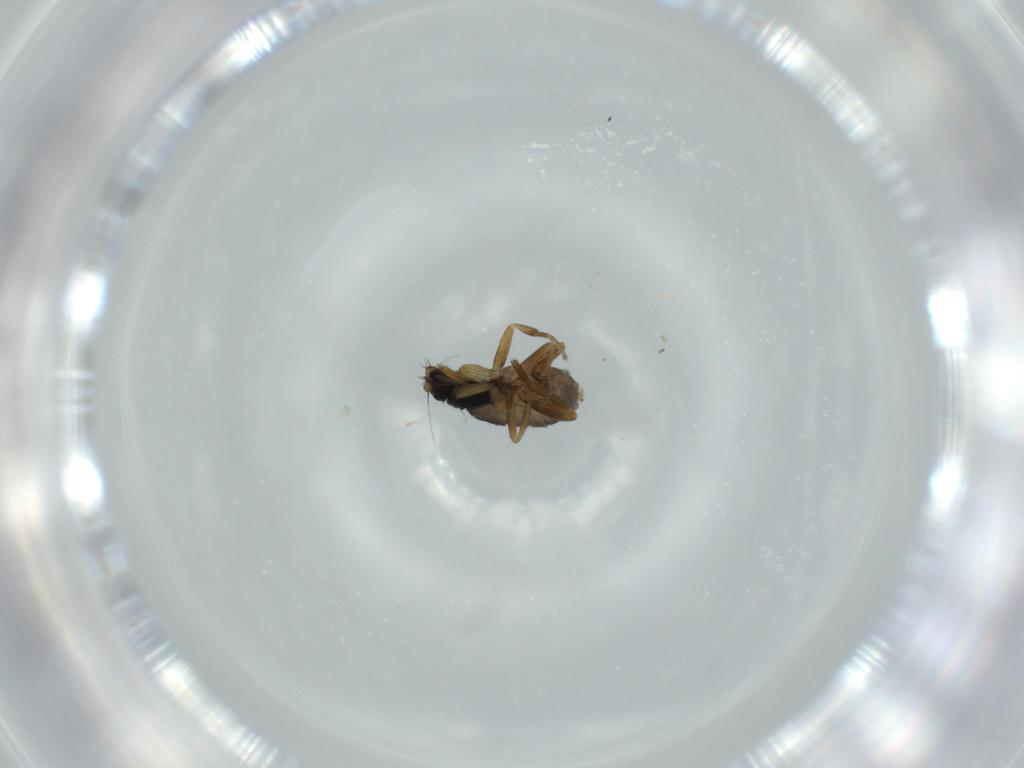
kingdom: Animalia
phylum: Arthropoda
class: Insecta
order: Diptera
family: Phoridae
